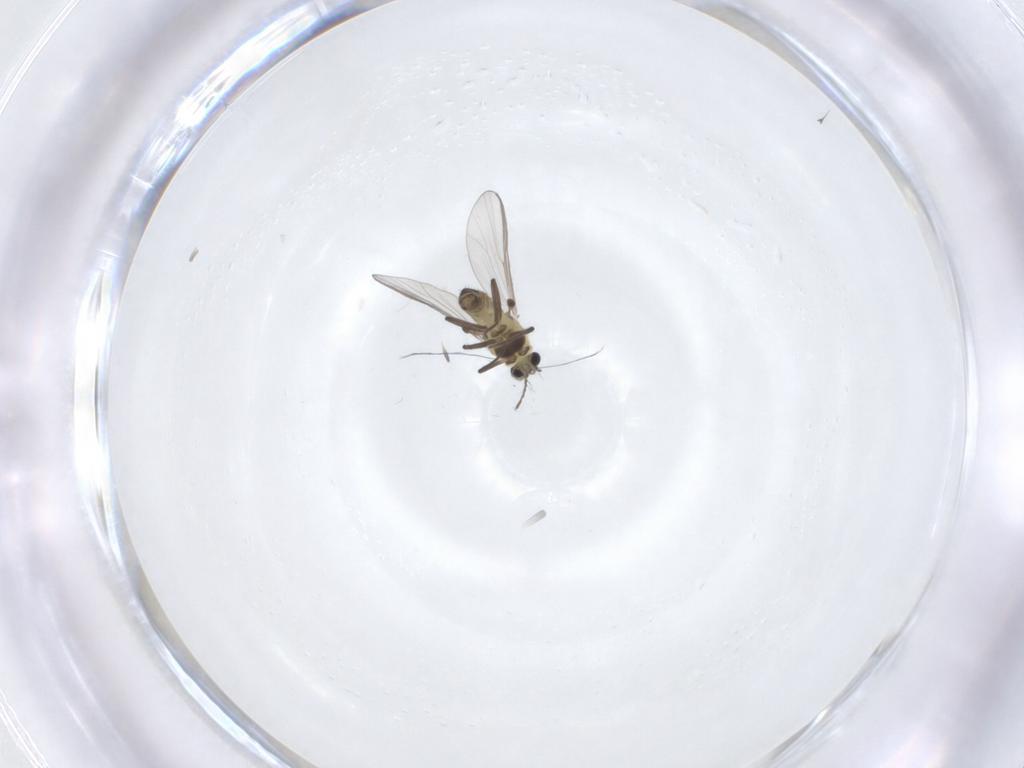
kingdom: Animalia
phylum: Arthropoda
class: Insecta
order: Diptera
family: Chironomidae
